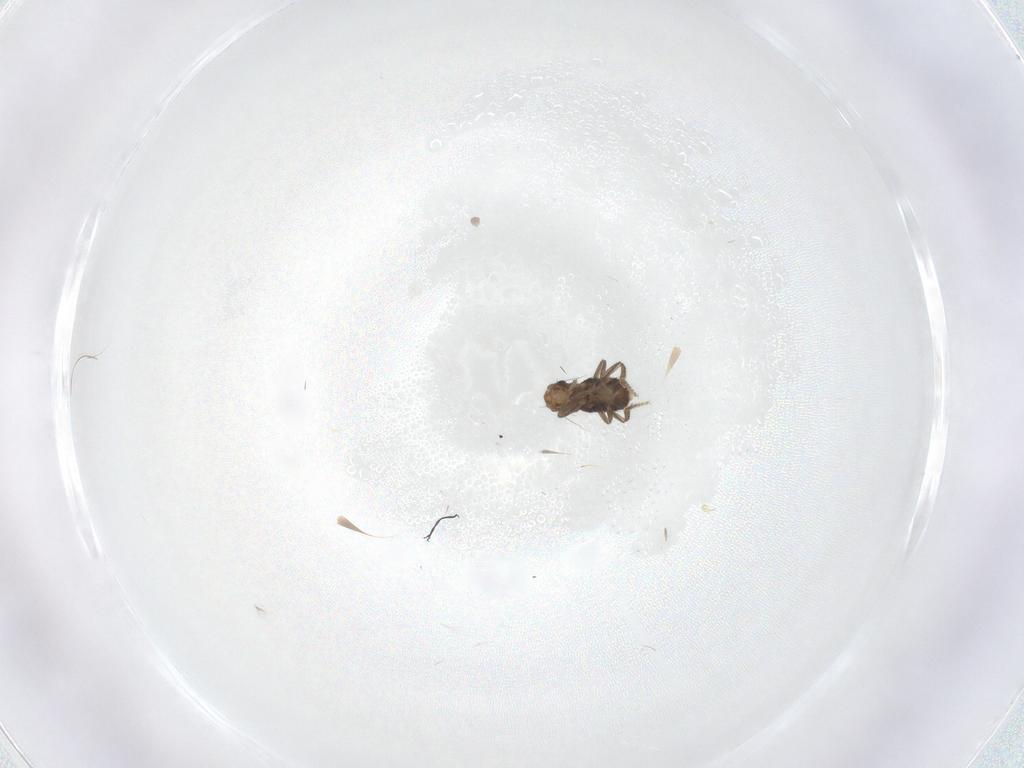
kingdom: Animalia
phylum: Arthropoda
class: Insecta
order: Diptera
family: Phoridae
